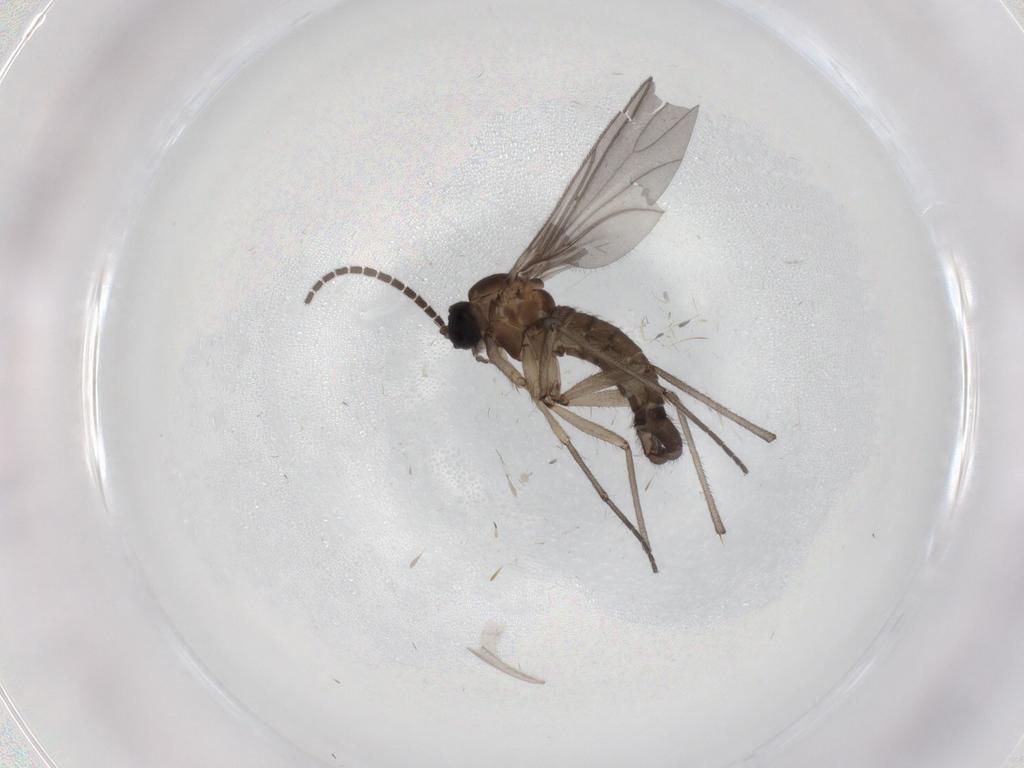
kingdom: Animalia
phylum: Arthropoda
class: Insecta
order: Diptera
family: Sciaridae
